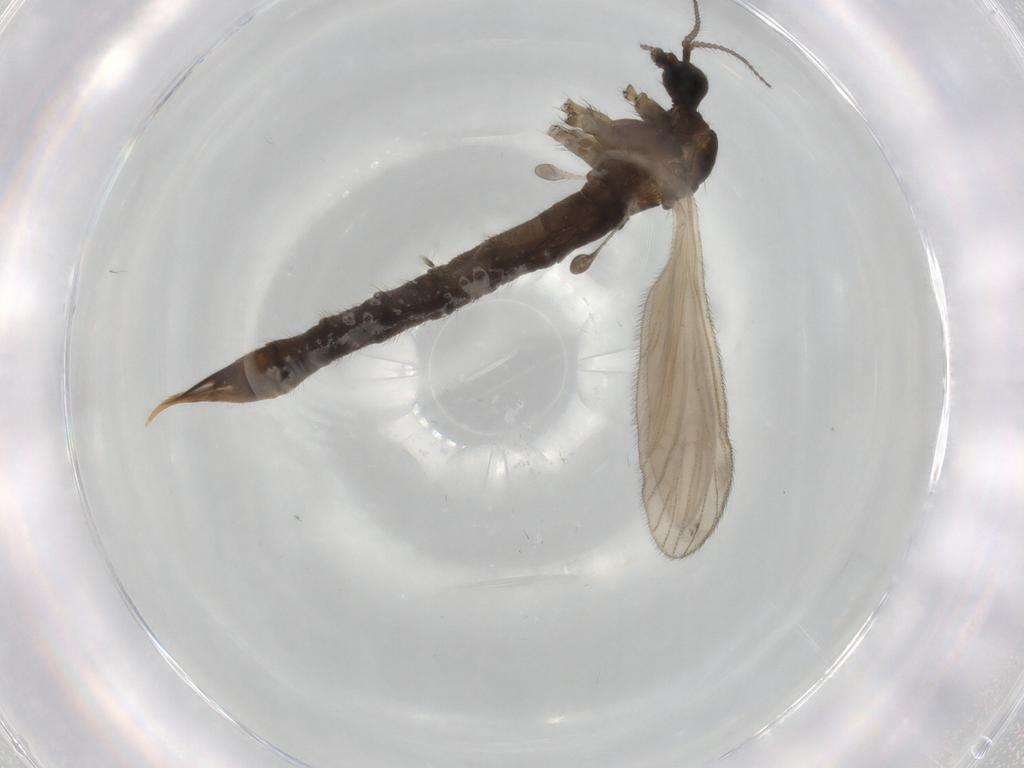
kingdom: Animalia
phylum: Arthropoda
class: Insecta
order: Diptera
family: Limoniidae
